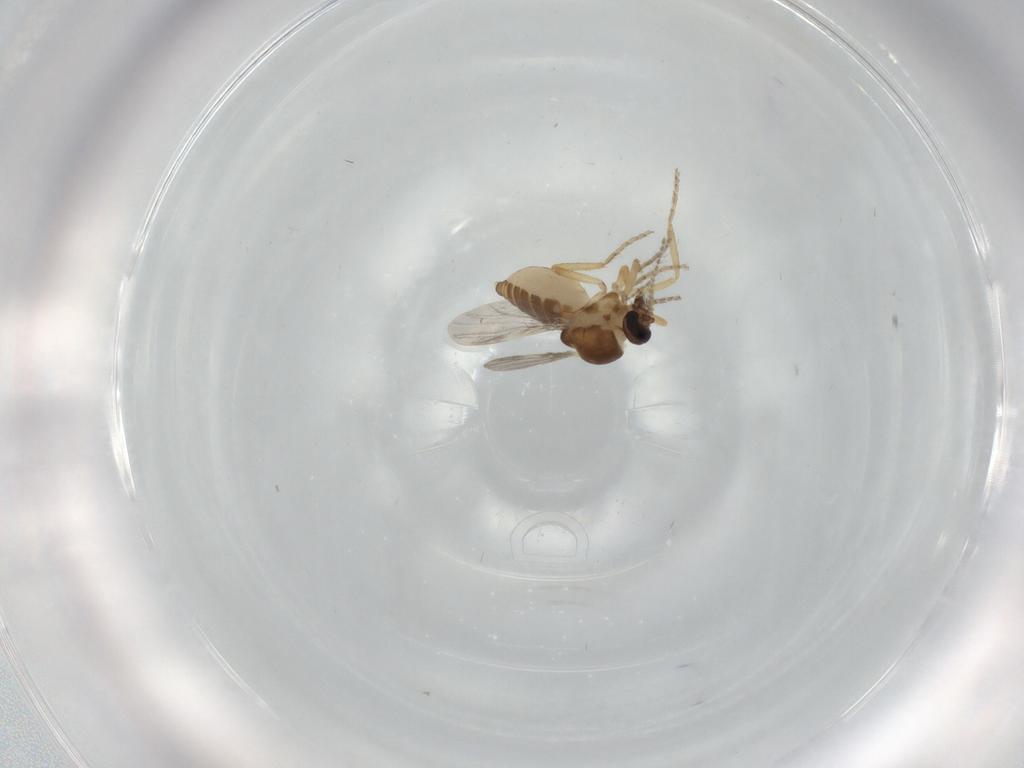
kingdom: Animalia
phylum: Arthropoda
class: Insecta
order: Diptera
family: Ceratopogonidae
